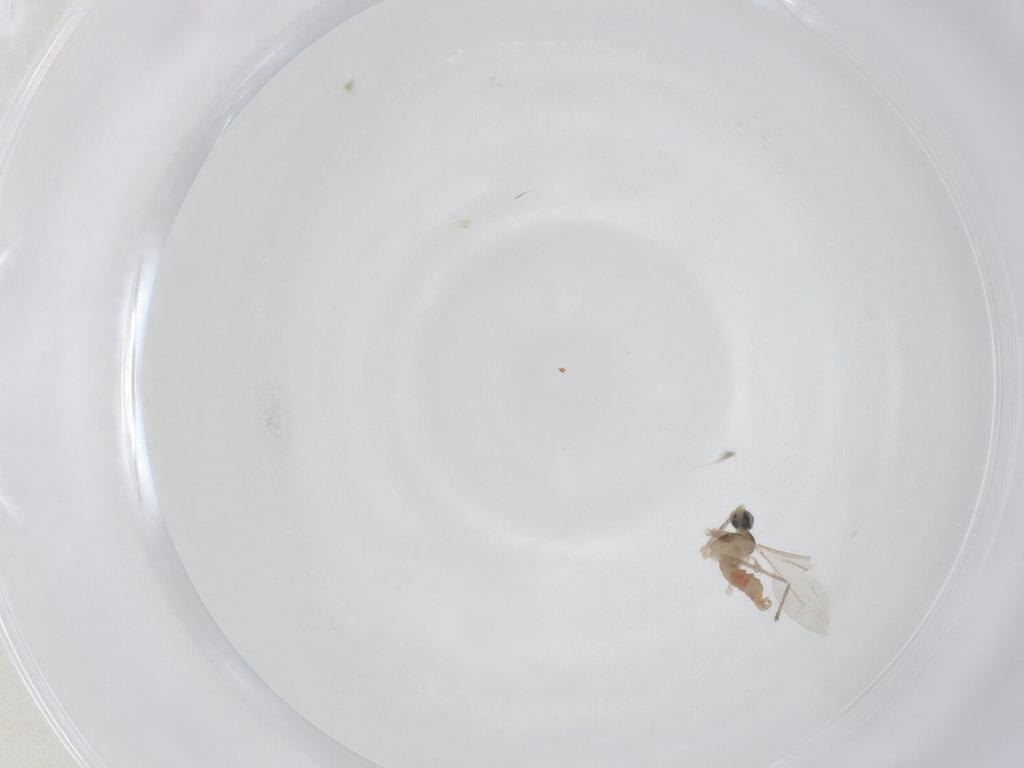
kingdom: Animalia
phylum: Arthropoda
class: Insecta
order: Diptera
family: Cecidomyiidae
